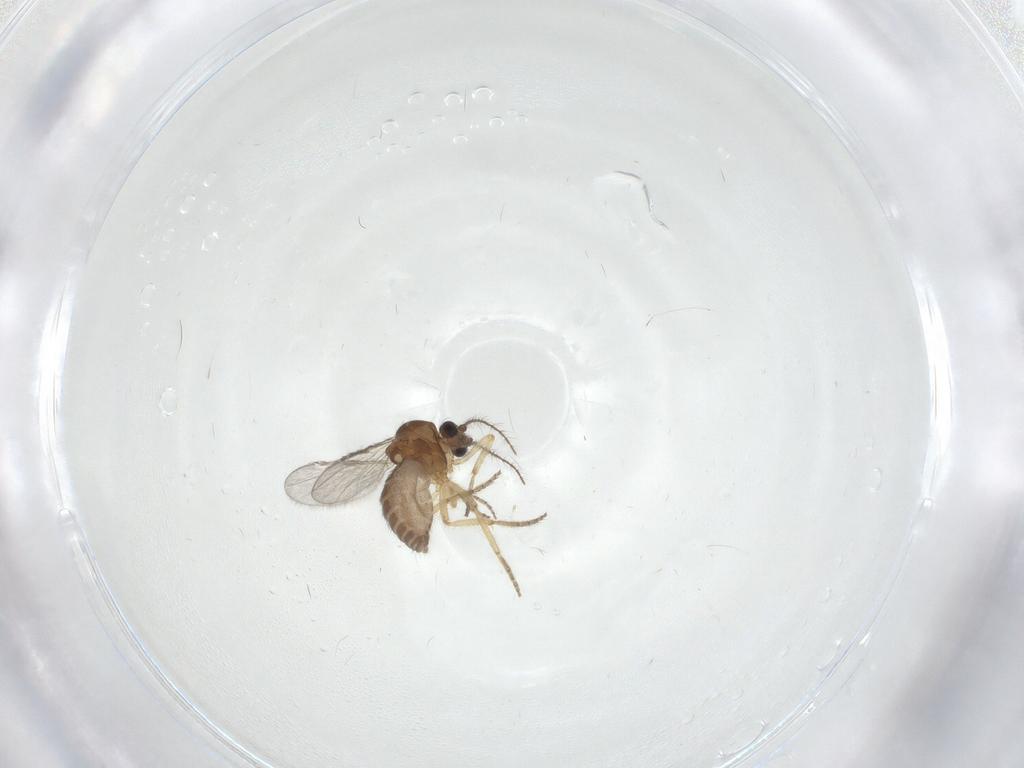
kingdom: Animalia
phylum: Arthropoda
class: Insecta
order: Diptera
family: Ceratopogonidae
